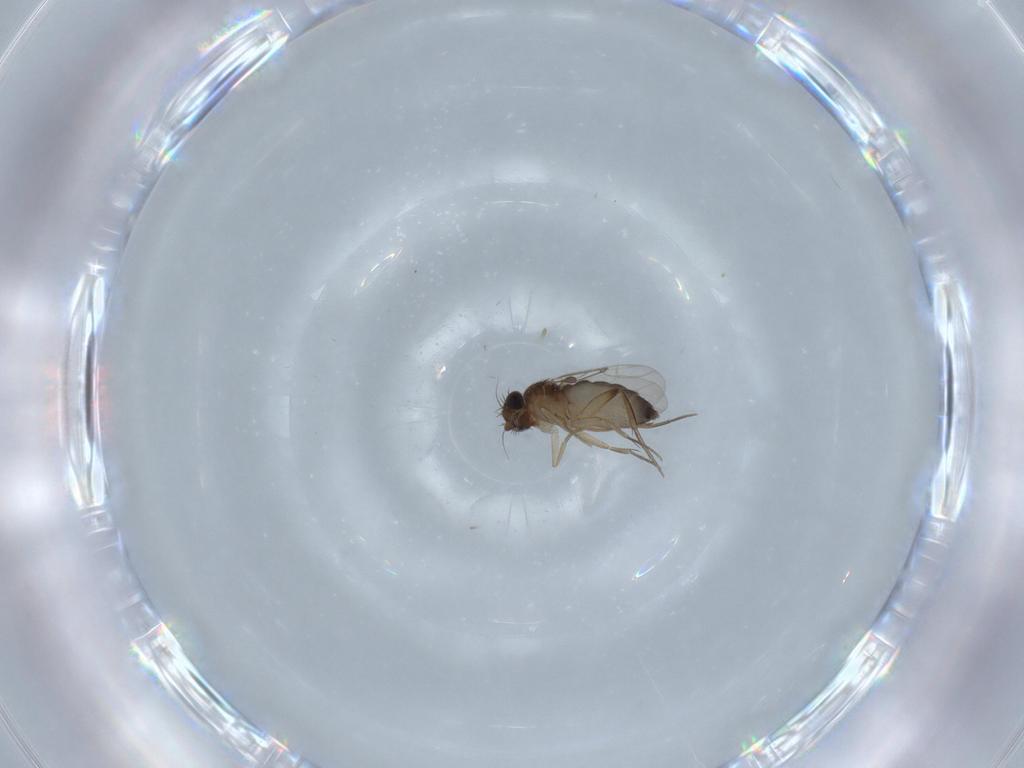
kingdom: Animalia
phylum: Arthropoda
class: Insecta
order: Diptera
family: Phoridae
